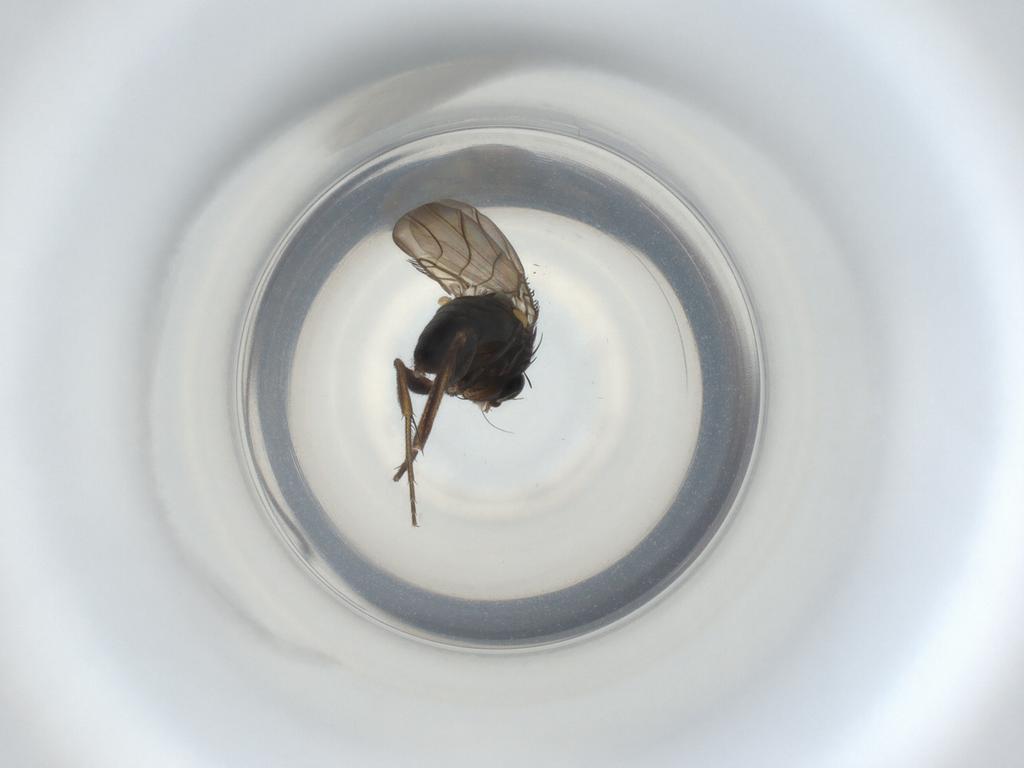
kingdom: Animalia
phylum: Arthropoda
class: Insecta
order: Diptera
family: Phoridae
